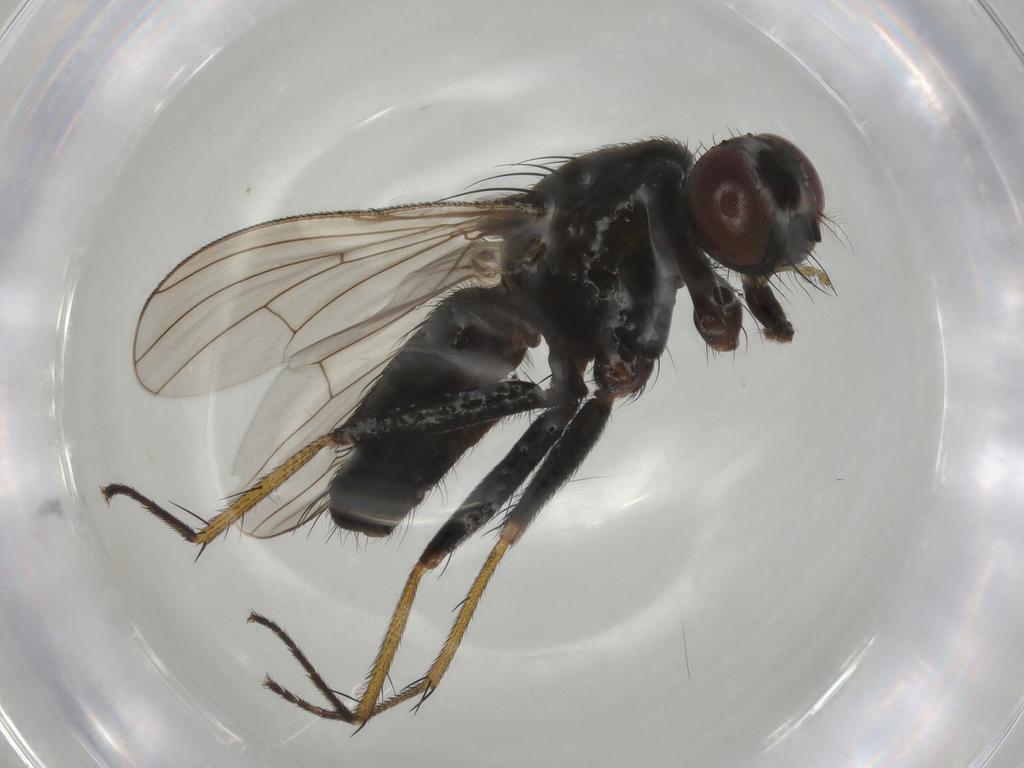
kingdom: Animalia
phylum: Arthropoda
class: Insecta
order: Diptera
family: Muscidae
